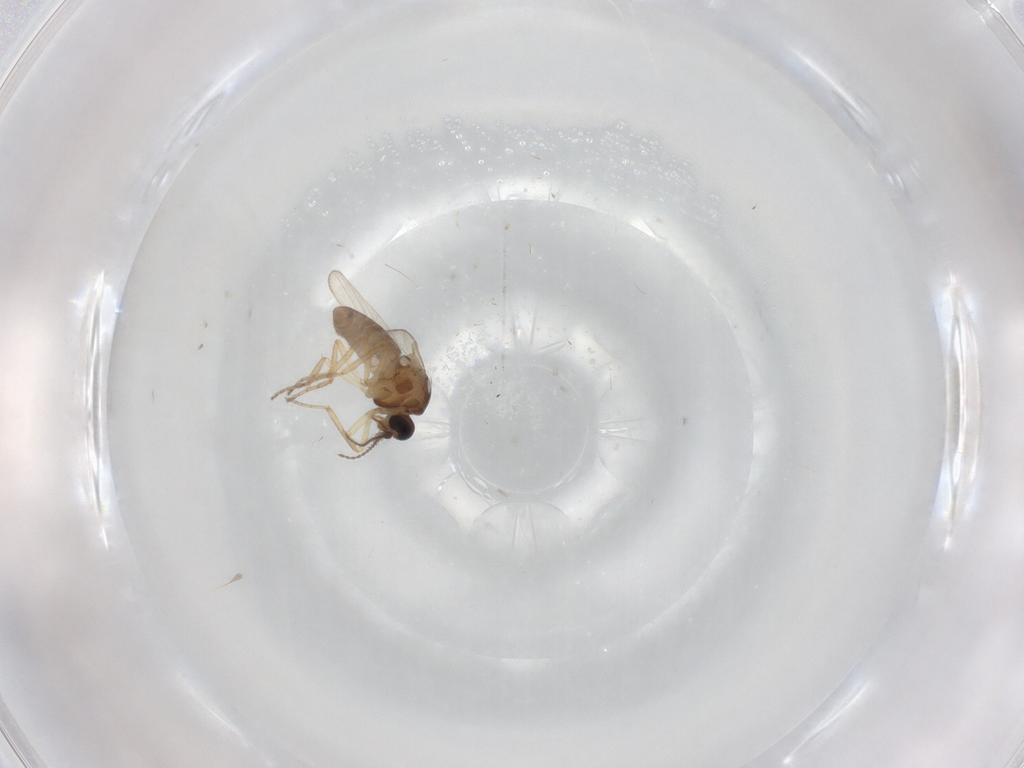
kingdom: Animalia
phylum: Arthropoda
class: Insecta
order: Diptera
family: Ceratopogonidae
